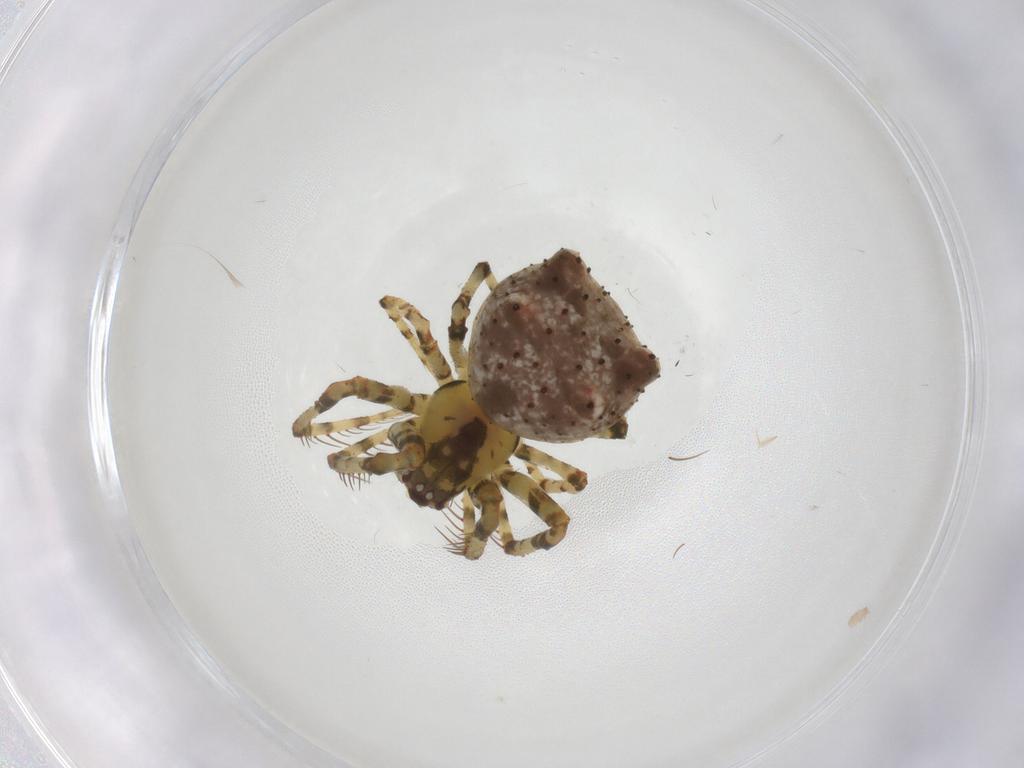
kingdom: Animalia
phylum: Arthropoda
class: Arachnida
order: Araneae
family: Mimetidae
